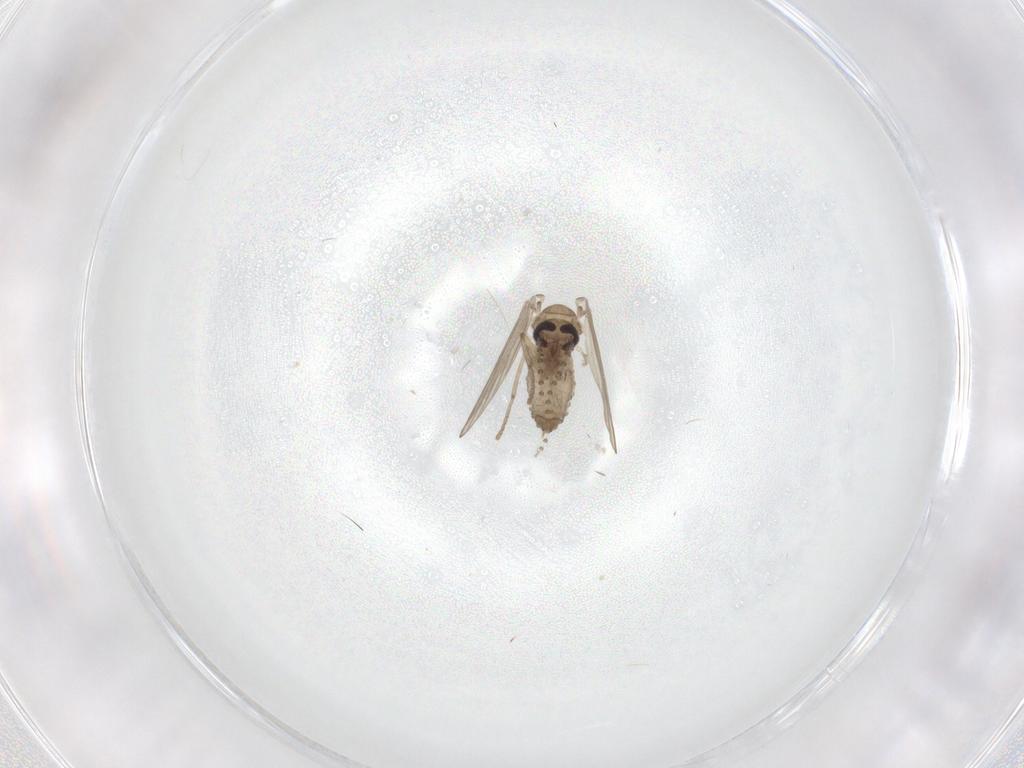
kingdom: Animalia
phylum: Arthropoda
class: Insecta
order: Diptera
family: Psychodidae
